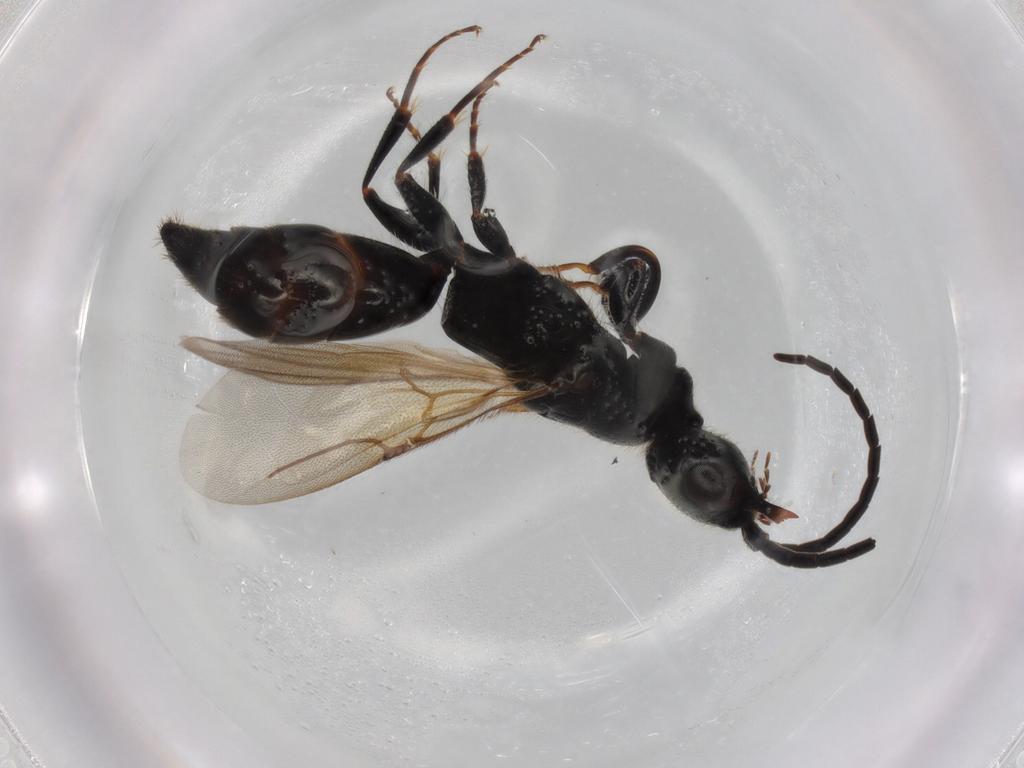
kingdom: Animalia
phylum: Arthropoda
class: Insecta
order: Hymenoptera
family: Bethylidae
